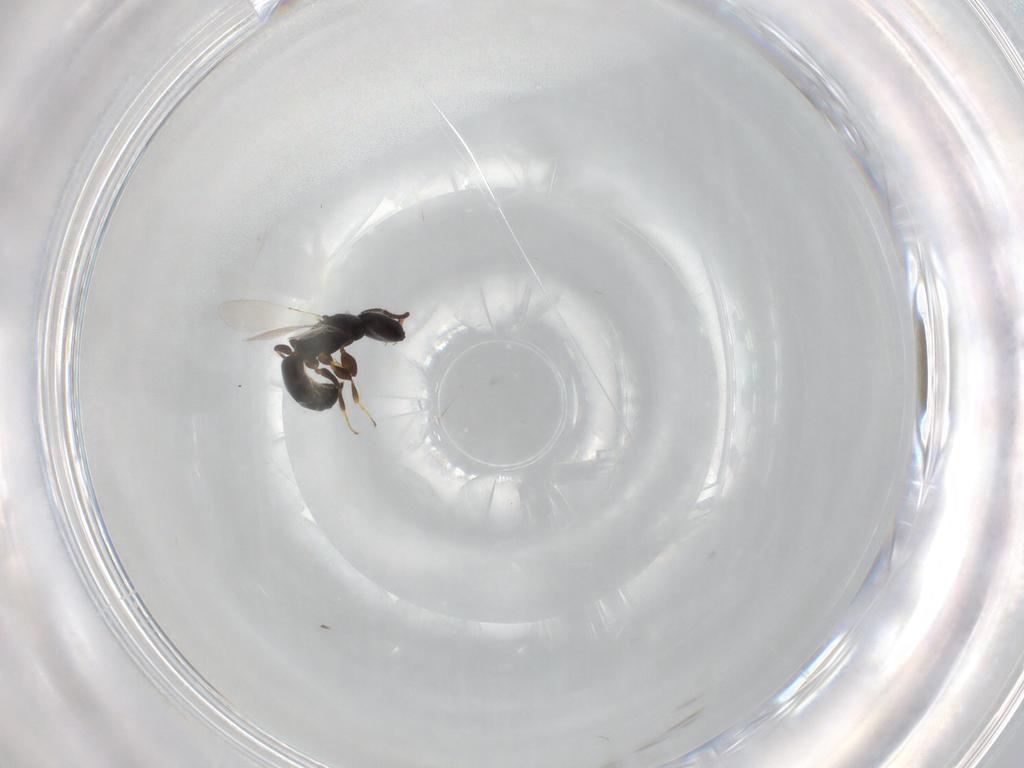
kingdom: Animalia
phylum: Arthropoda
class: Insecta
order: Hymenoptera
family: Bethylidae
